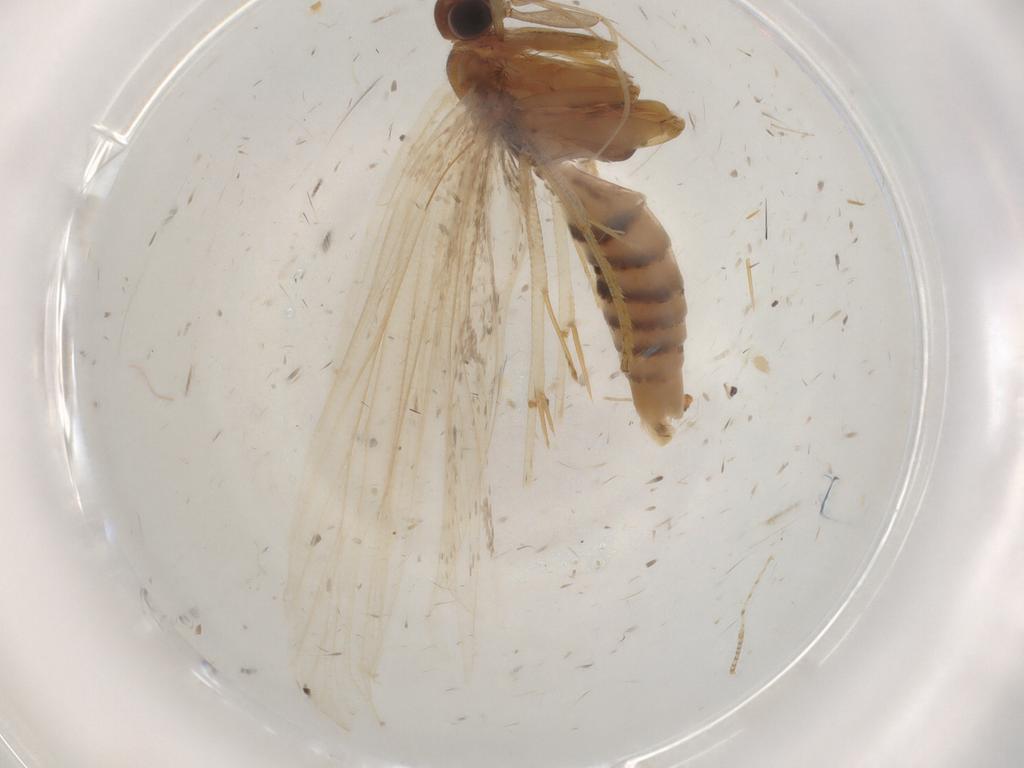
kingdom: Animalia
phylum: Arthropoda
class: Insecta
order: Lepidoptera
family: Gelechiidae
